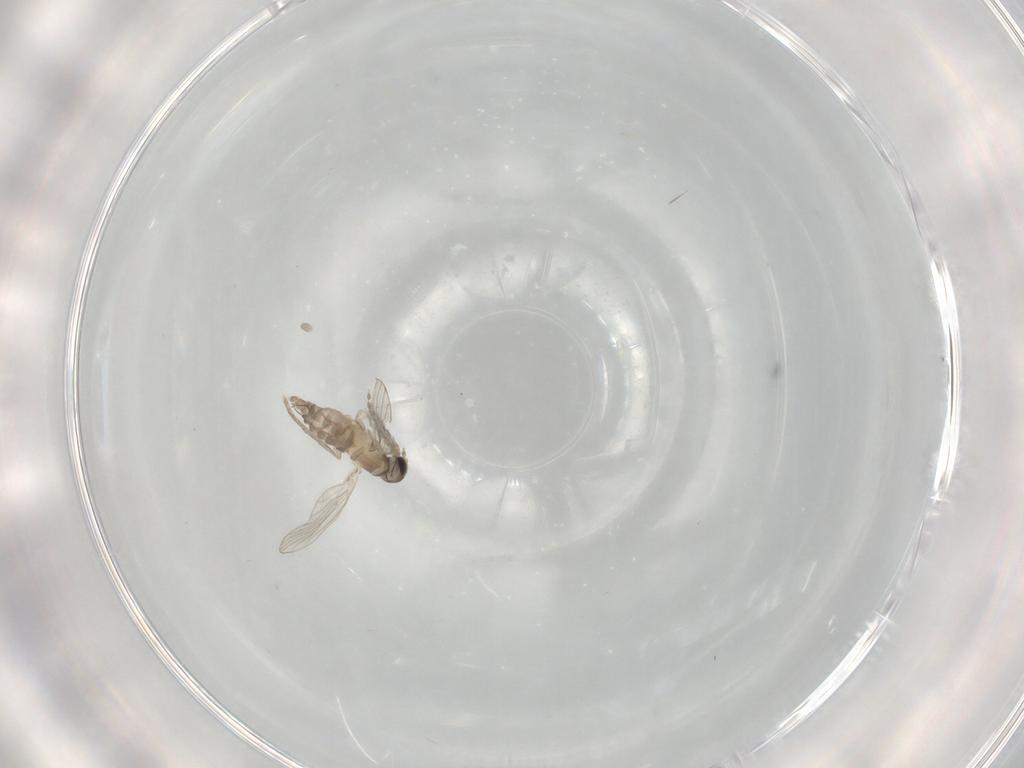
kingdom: Animalia
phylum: Arthropoda
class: Insecta
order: Diptera
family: Psychodidae
